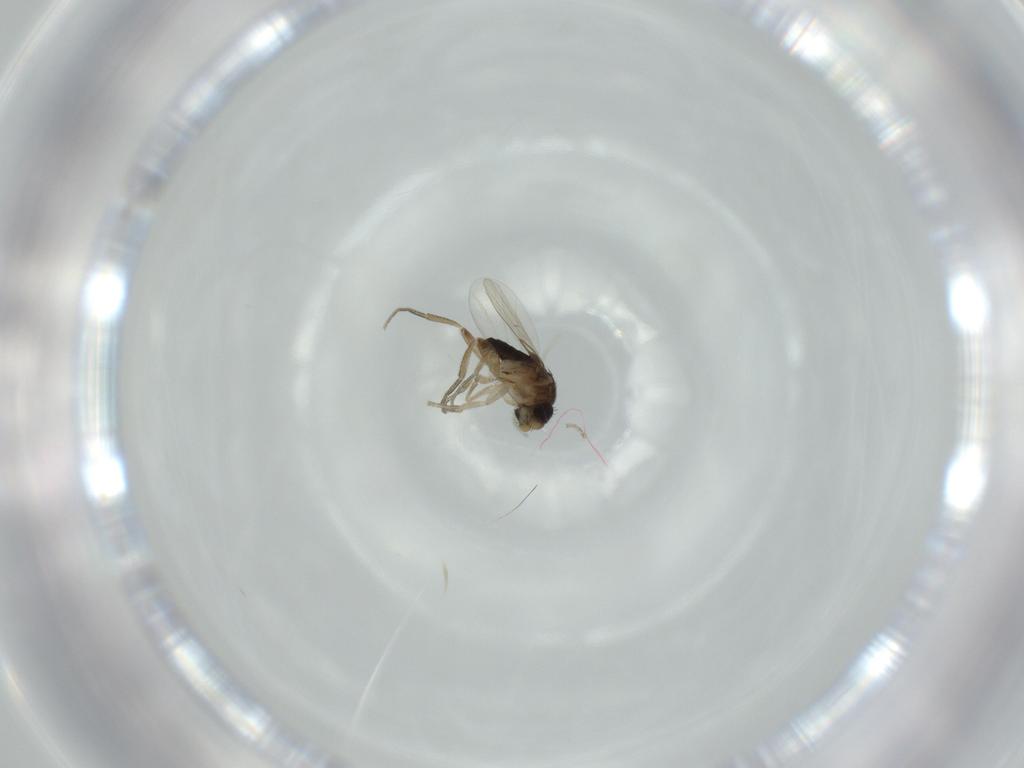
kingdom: Animalia
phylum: Arthropoda
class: Insecta
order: Diptera
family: Phoridae
